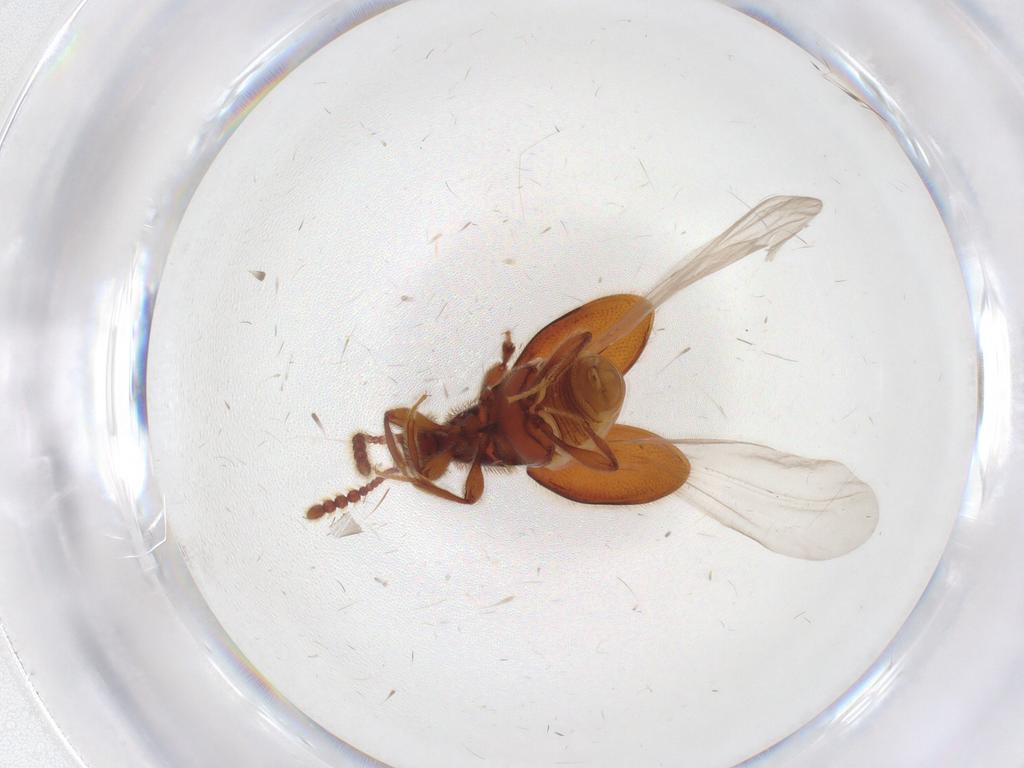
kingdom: Animalia
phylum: Arthropoda
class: Insecta
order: Coleoptera
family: Staphylinidae
